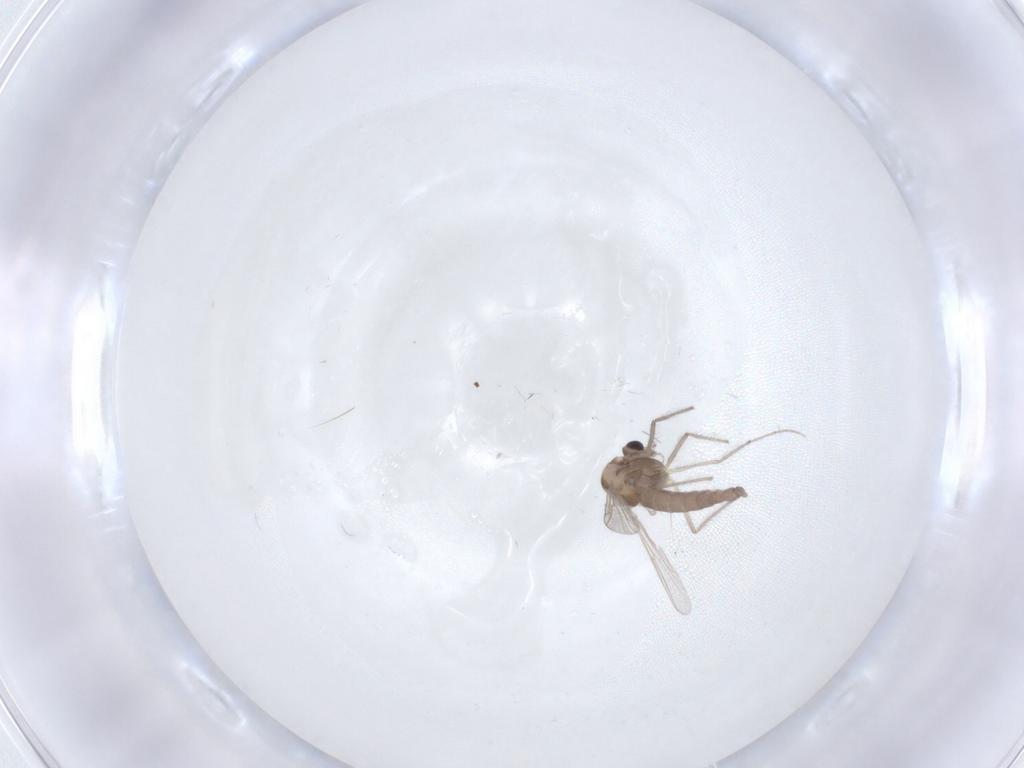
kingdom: Animalia
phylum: Arthropoda
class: Insecta
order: Diptera
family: Chironomidae
